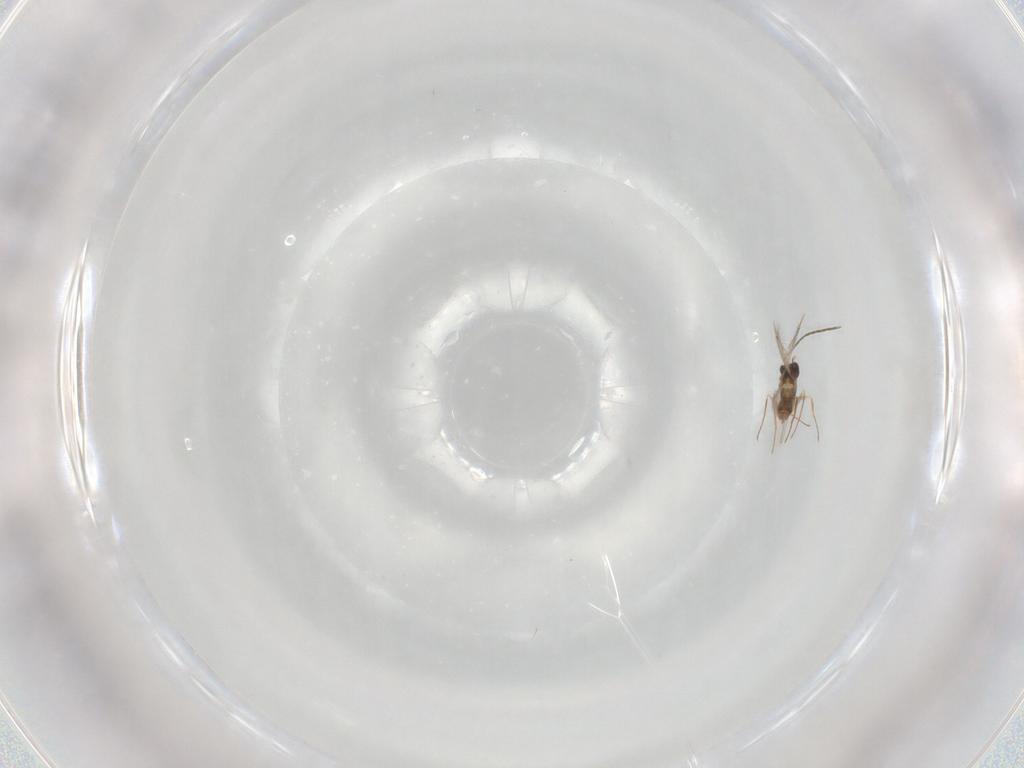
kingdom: Animalia
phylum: Arthropoda
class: Insecta
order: Hymenoptera
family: Mymaridae
